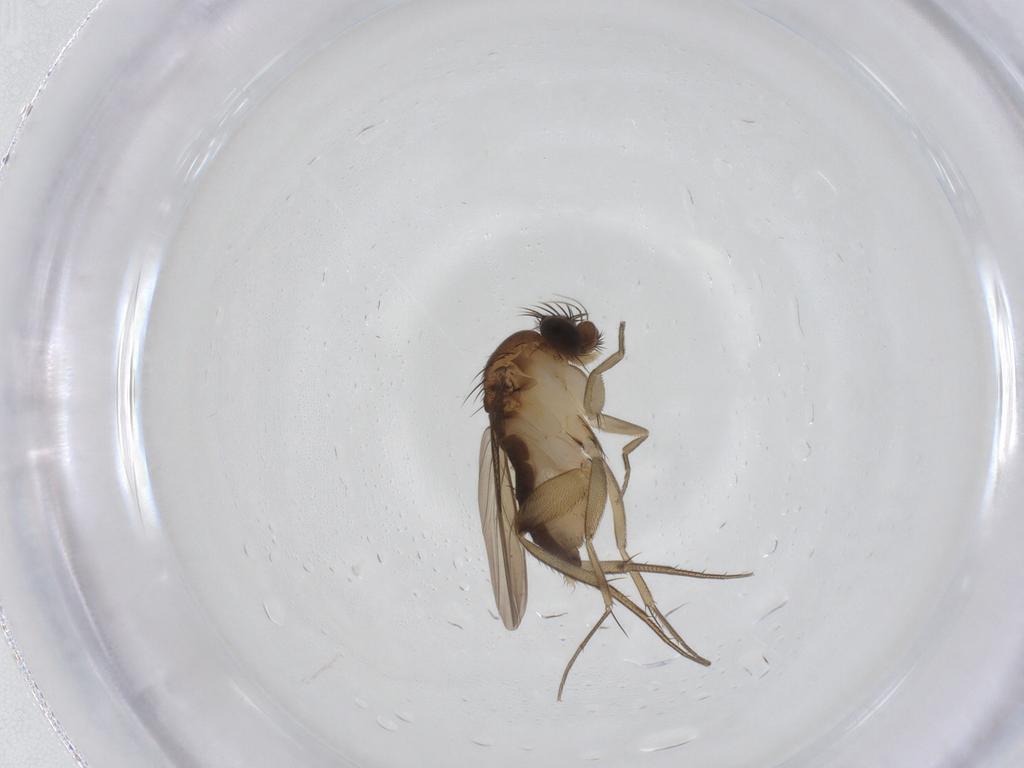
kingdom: Animalia
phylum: Arthropoda
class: Insecta
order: Diptera
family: Phoridae
